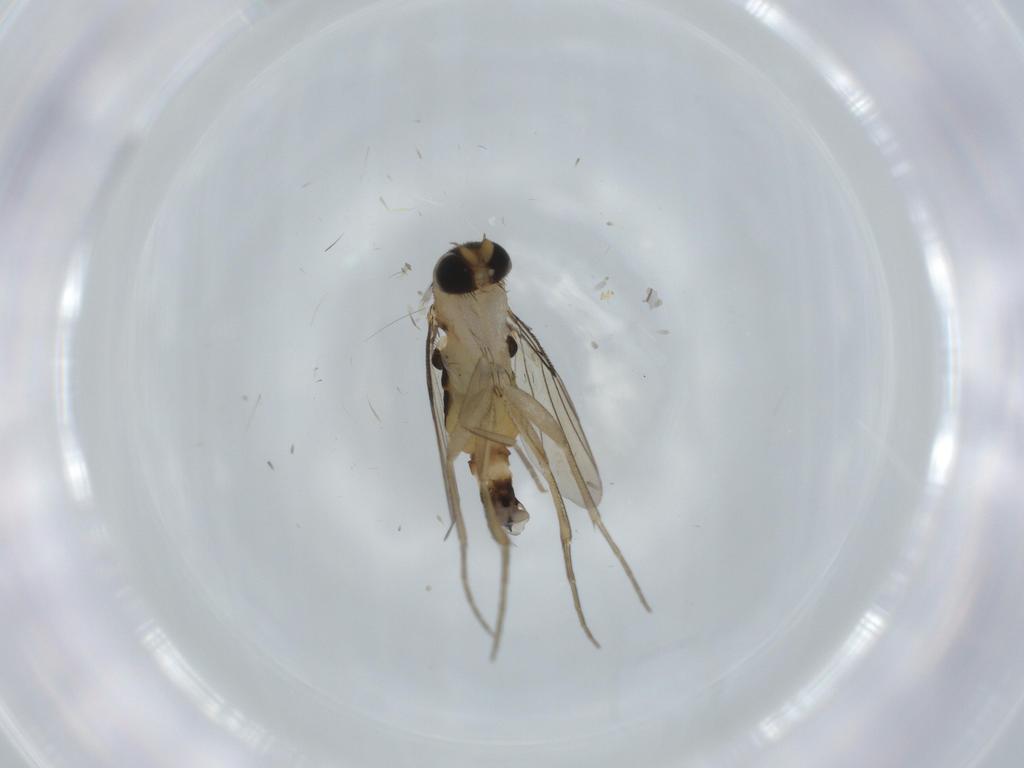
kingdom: Animalia
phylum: Arthropoda
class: Insecta
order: Diptera
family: Phoridae
